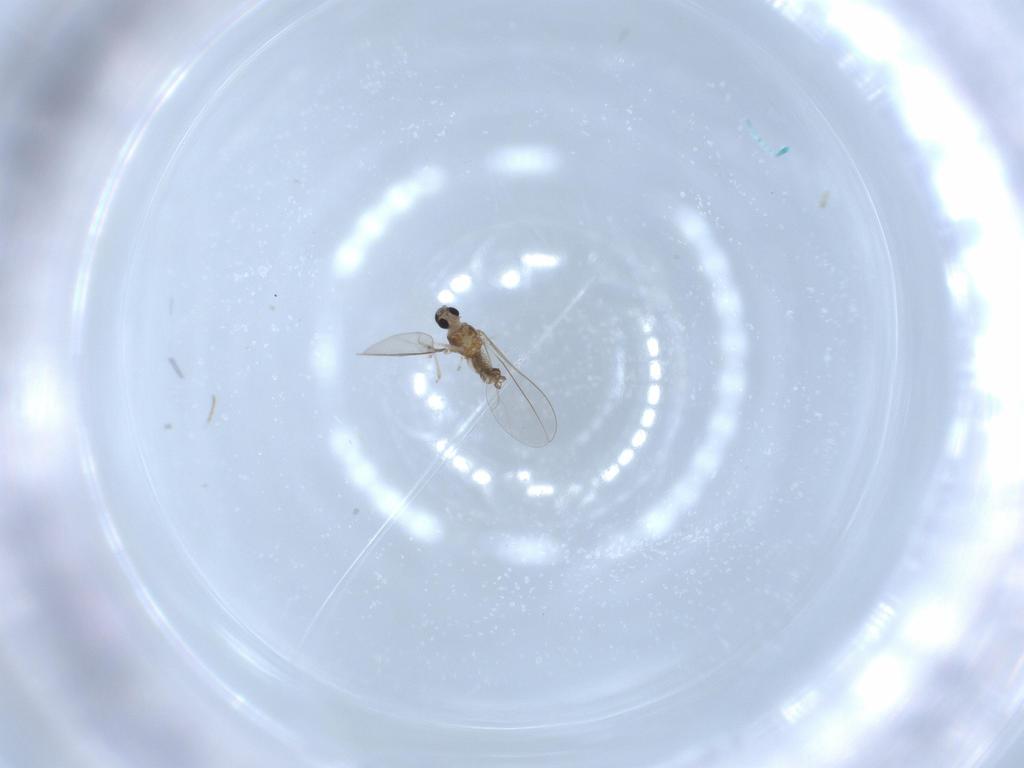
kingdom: Animalia
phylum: Arthropoda
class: Insecta
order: Diptera
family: Cecidomyiidae
